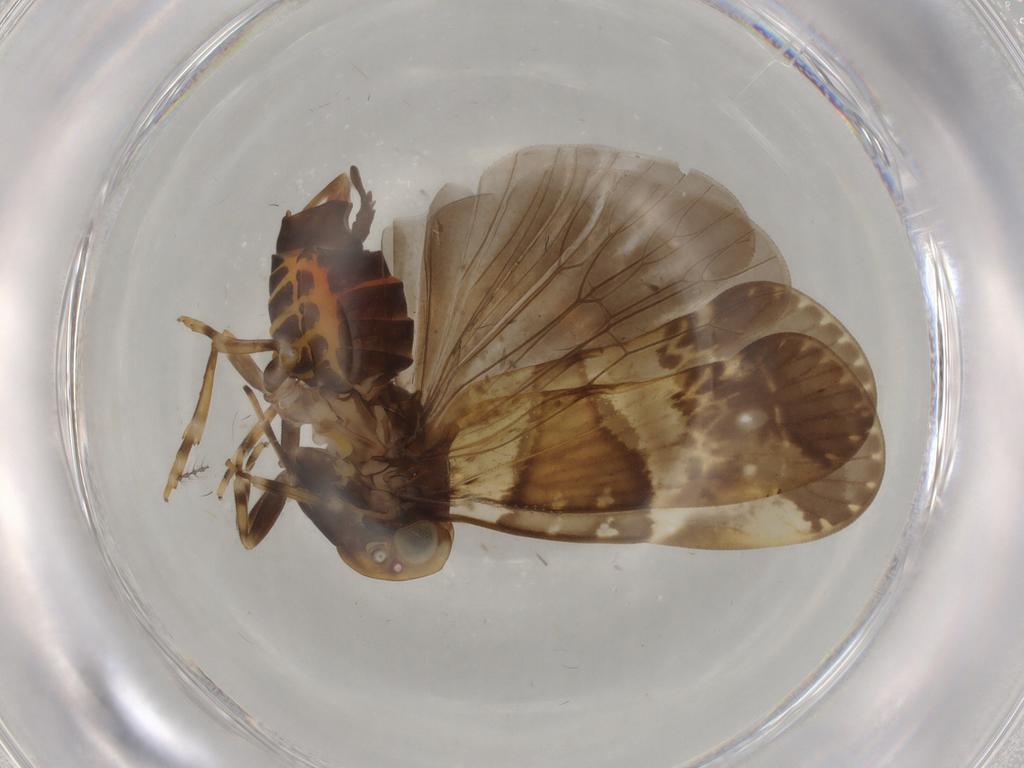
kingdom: Animalia
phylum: Arthropoda
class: Insecta
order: Hemiptera
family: Cixiidae
